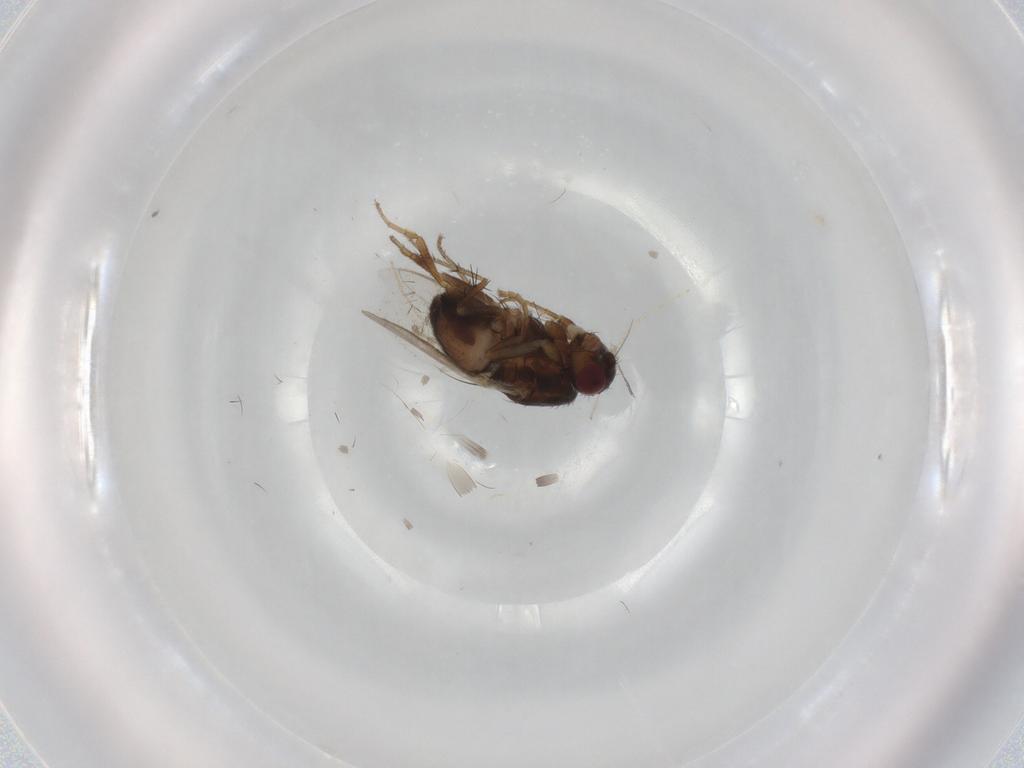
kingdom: Animalia
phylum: Arthropoda
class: Insecta
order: Diptera
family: Sphaeroceridae
